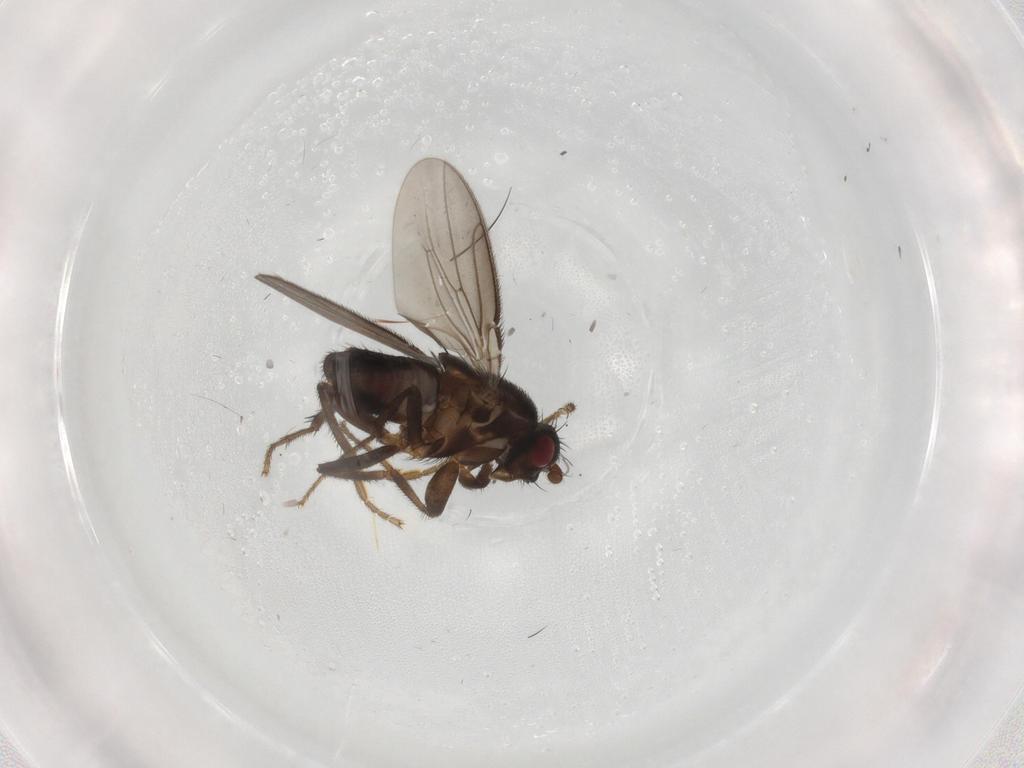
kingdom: Animalia
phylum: Arthropoda
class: Insecta
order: Diptera
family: Sphaeroceridae
